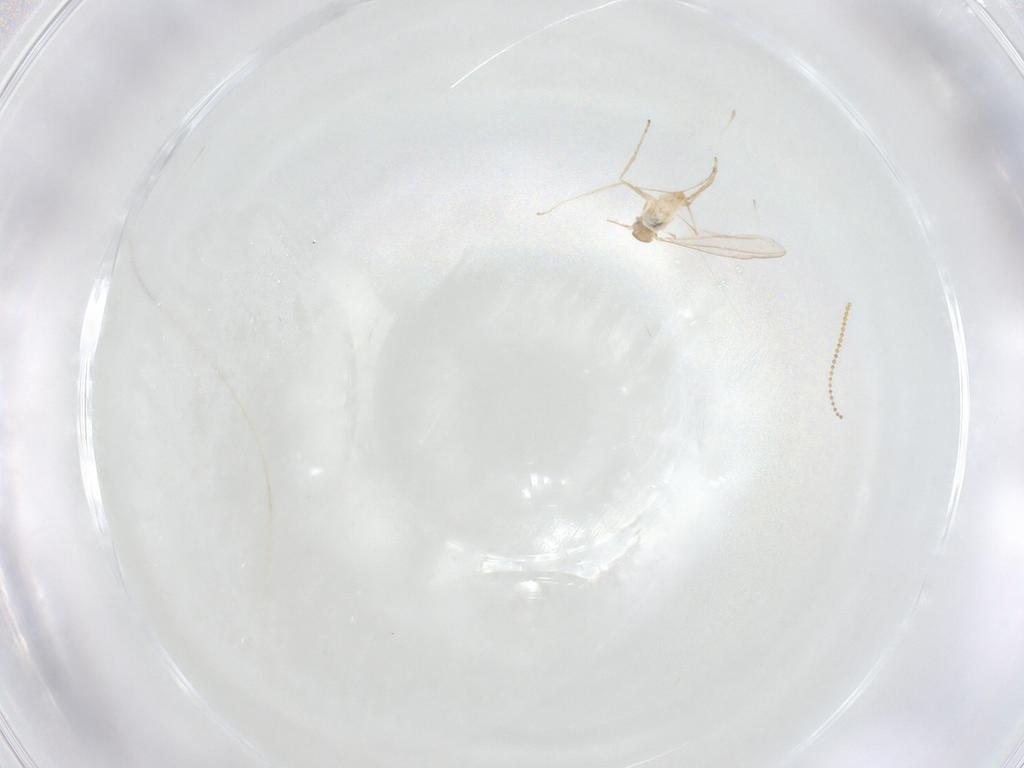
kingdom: Animalia
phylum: Arthropoda
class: Insecta
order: Diptera
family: Cecidomyiidae
